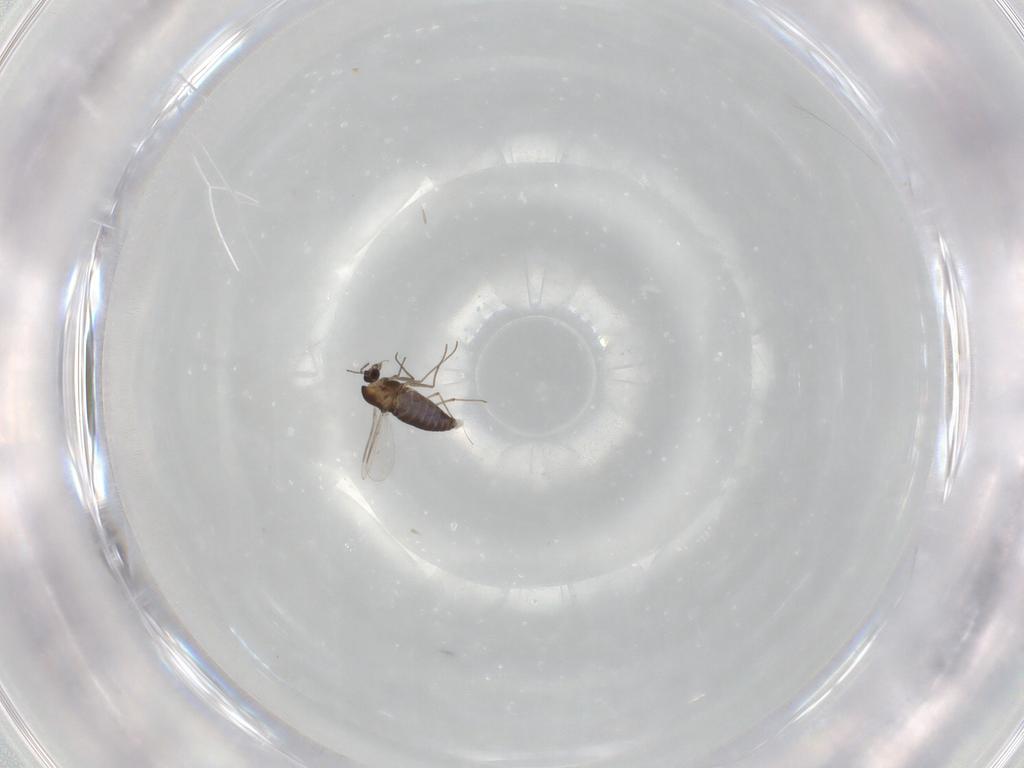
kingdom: Animalia
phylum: Arthropoda
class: Insecta
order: Diptera
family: Chironomidae
